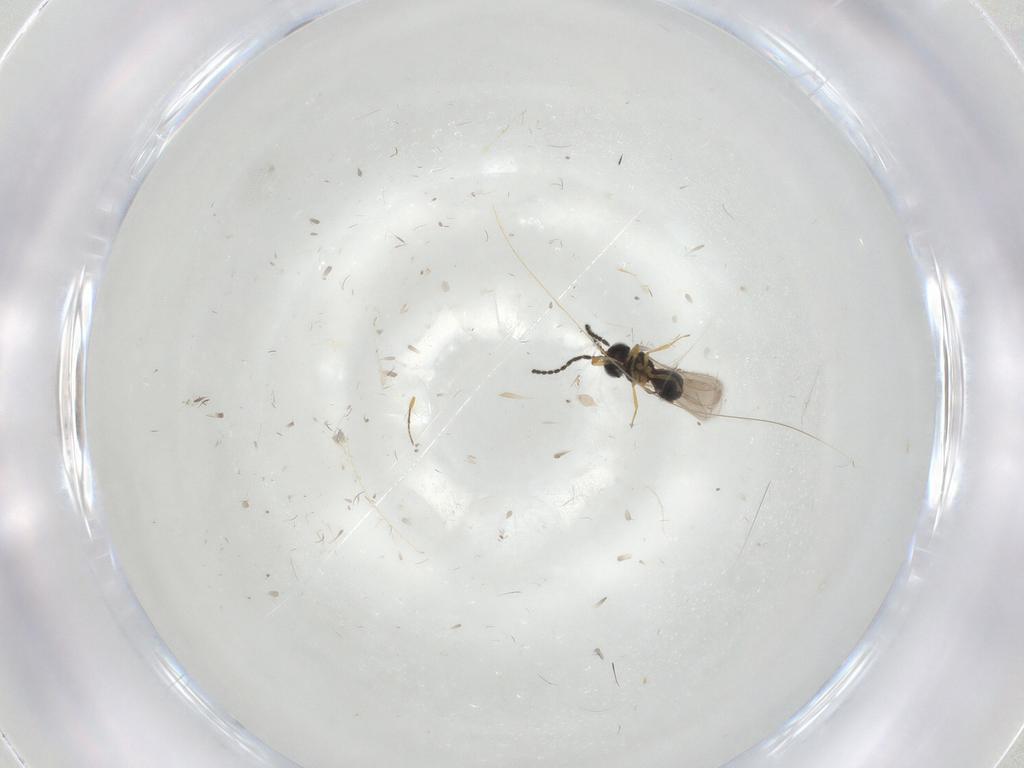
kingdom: Animalia
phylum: Arthropoda
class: Insecta
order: Hymenoptera
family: Scelionidae
